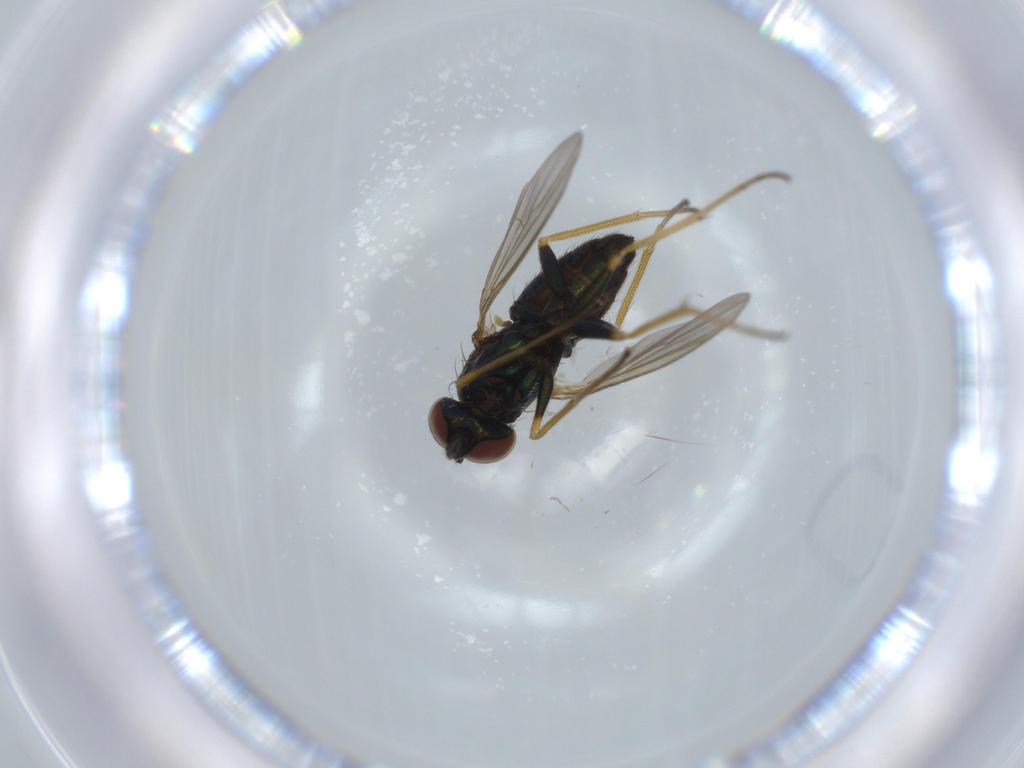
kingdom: Animalia
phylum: Arthropoda
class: Insecta
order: Diptera
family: Dolichopodidae
